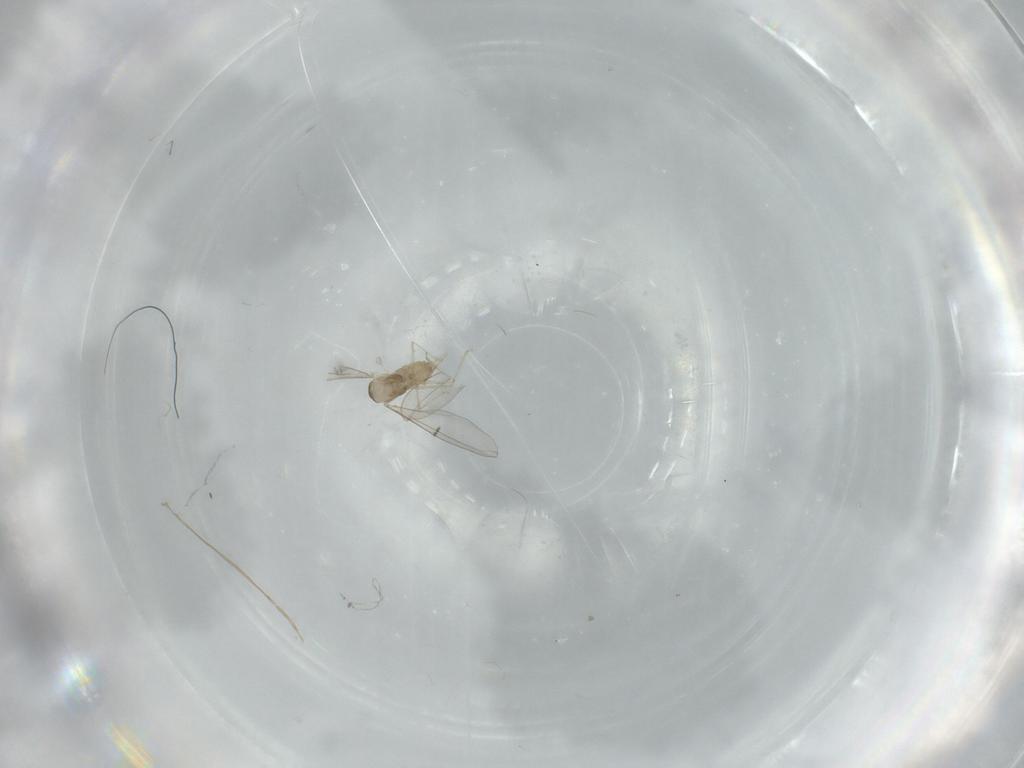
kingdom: Animalia
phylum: Arthropoda
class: Insecta
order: Diptera
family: Cecidomyiidae
